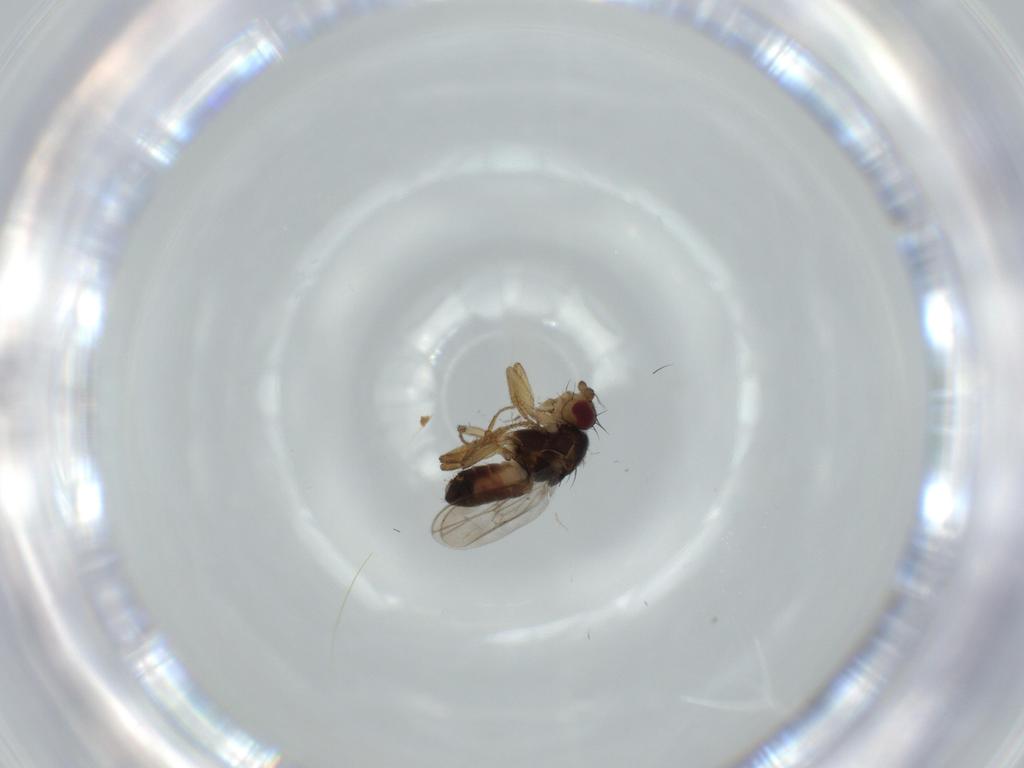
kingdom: Animalia
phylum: Arthropoda
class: Insecta
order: Diptera
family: Sphaeroceridae
